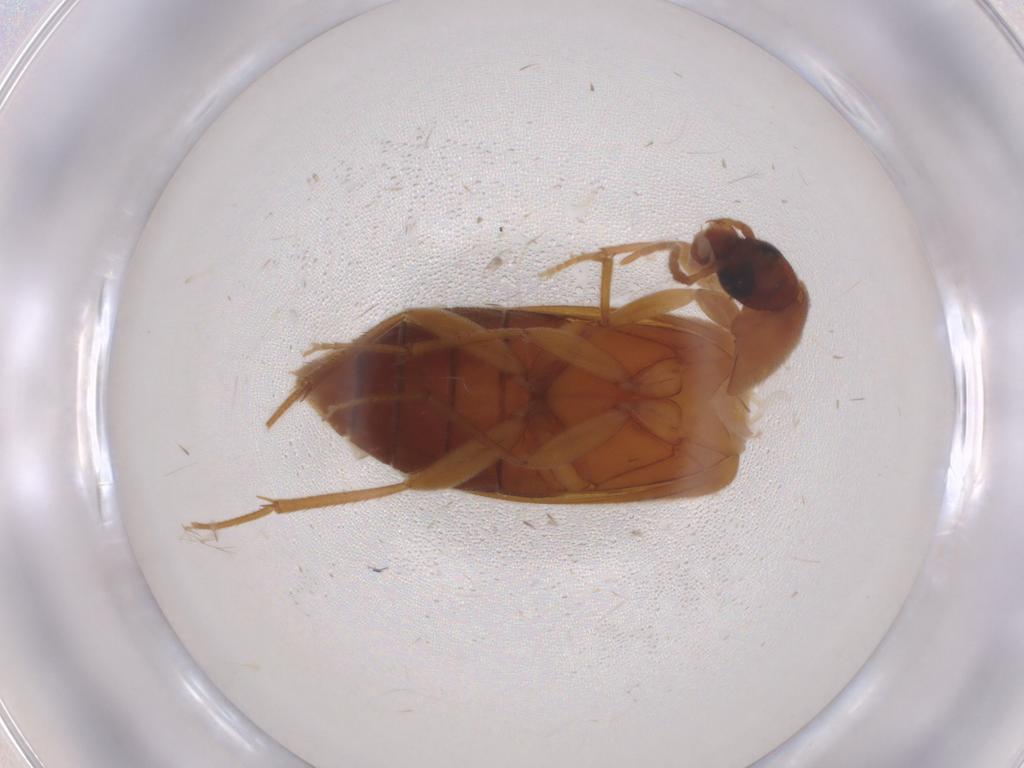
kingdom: Animalia
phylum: Arthropoda
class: Insecta
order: Coleoptera
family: Scraptiidae
